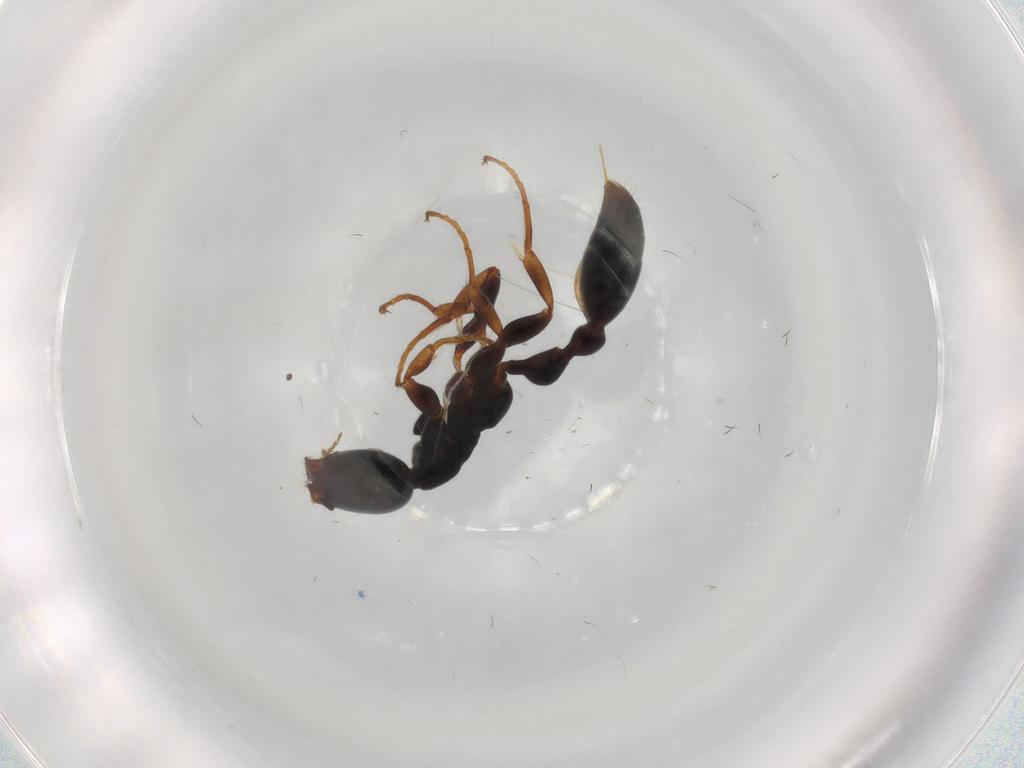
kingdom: Animalia
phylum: Arthropoda
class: Insecta
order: Hymenoptera
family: Formicidae
